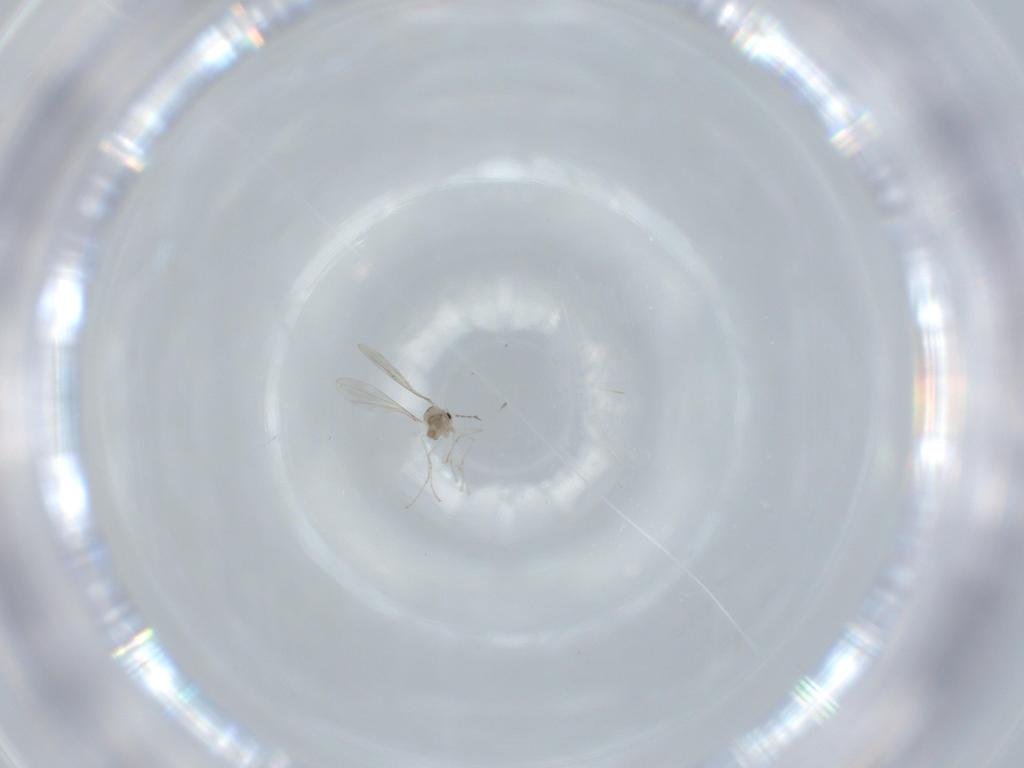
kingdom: Animalia
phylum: Arthropoda
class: Insecta
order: Diptera
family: Cecidomyiidae
